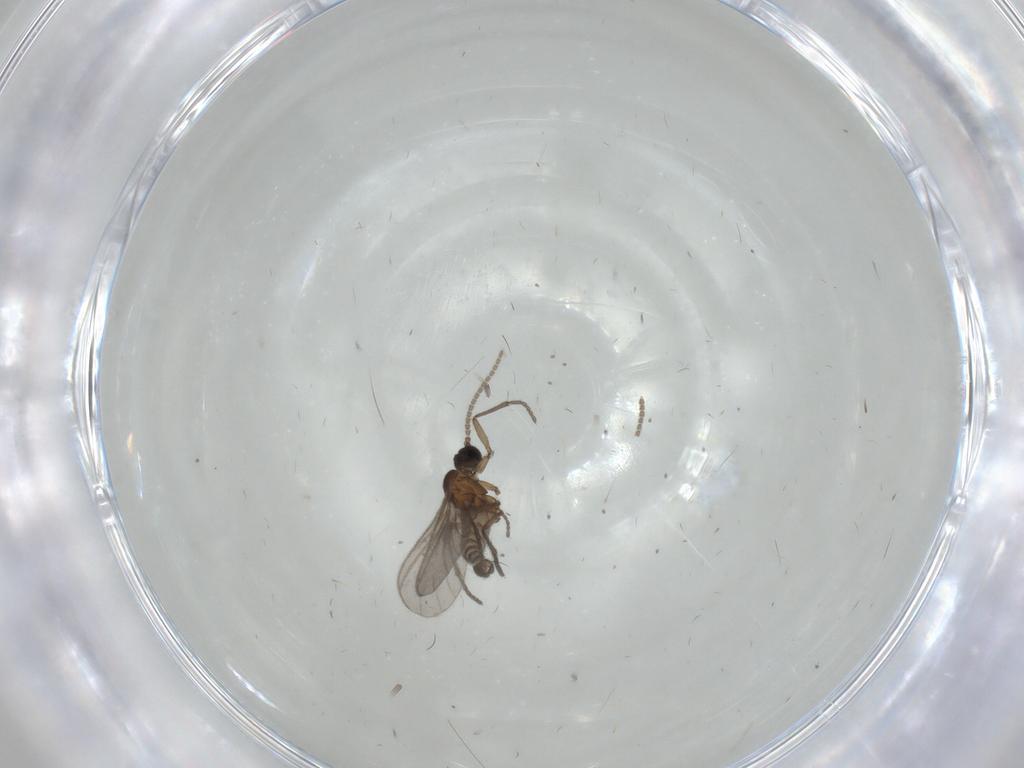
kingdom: Animalia
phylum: Arthropoda
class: Insecta
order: Diptera
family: Sciaridae
